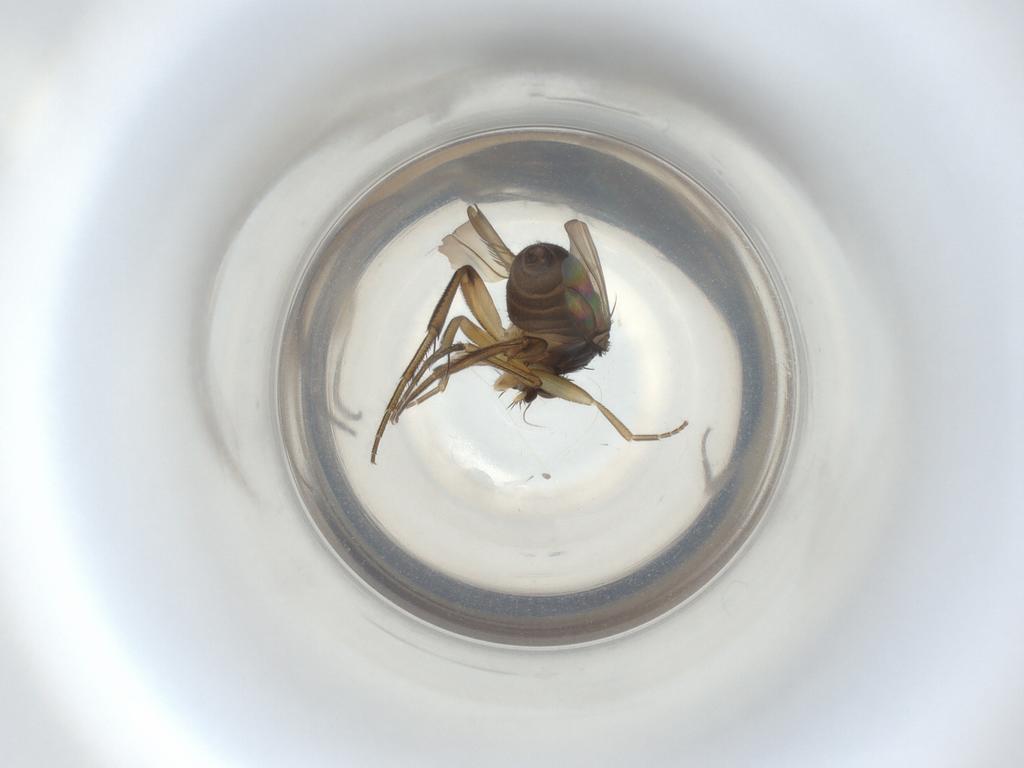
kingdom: Animalia
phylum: Arthropoda
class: Insecta
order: Diptera
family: Phoridae
